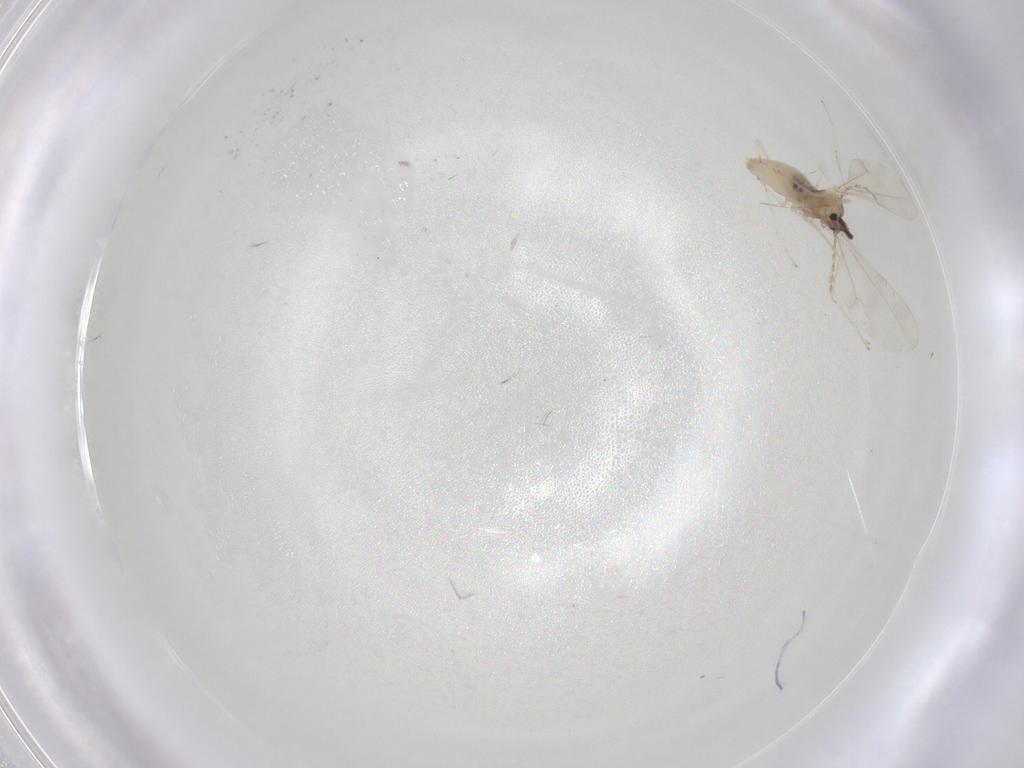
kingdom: Animalia
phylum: Arthropoda
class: Insecta
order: Diptera
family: Cecidomyiidae
